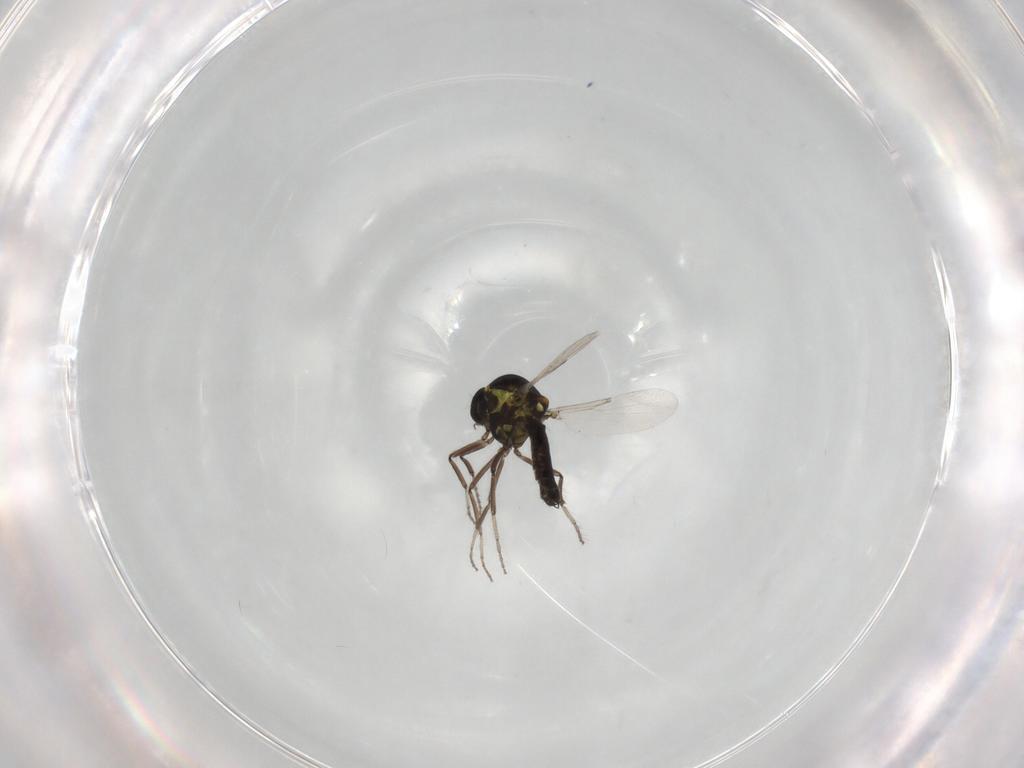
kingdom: Animalia
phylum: Arthropoda
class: Insecta
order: Diptera
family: Ceratopogonidae
